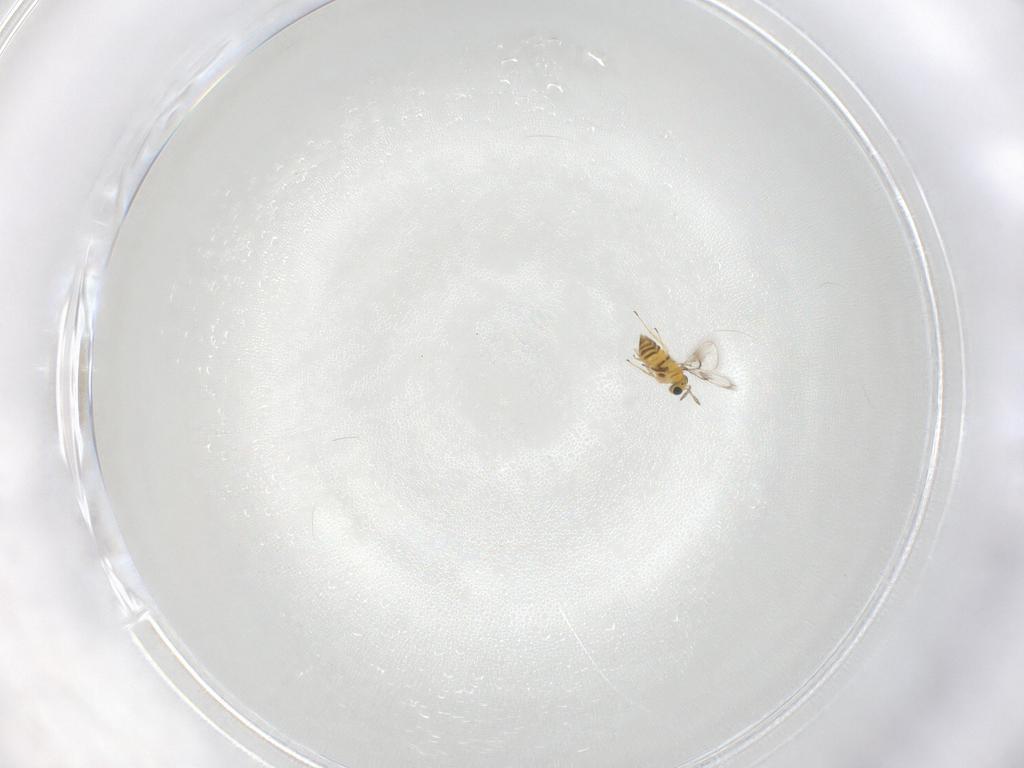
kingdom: Animalia
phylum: Arthropoda
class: Insecta
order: Hymenoptera
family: Trichogrammatidae
